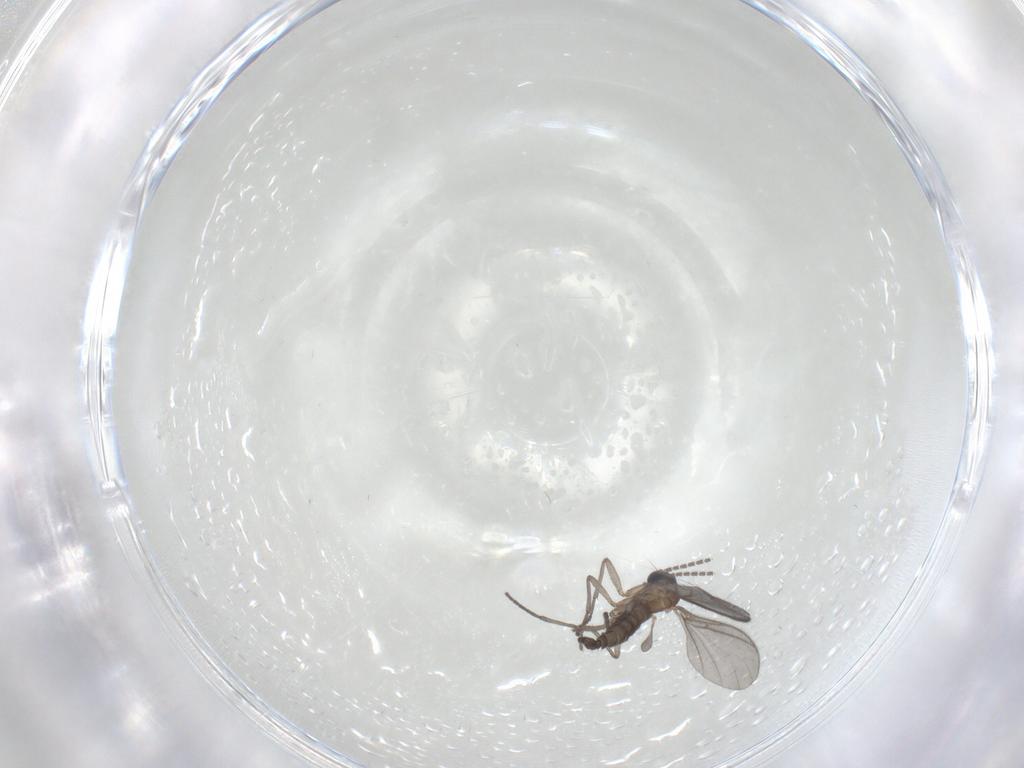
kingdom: Animalia
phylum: Arthropoda
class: Insecta
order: Diptera
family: Sciaridae
